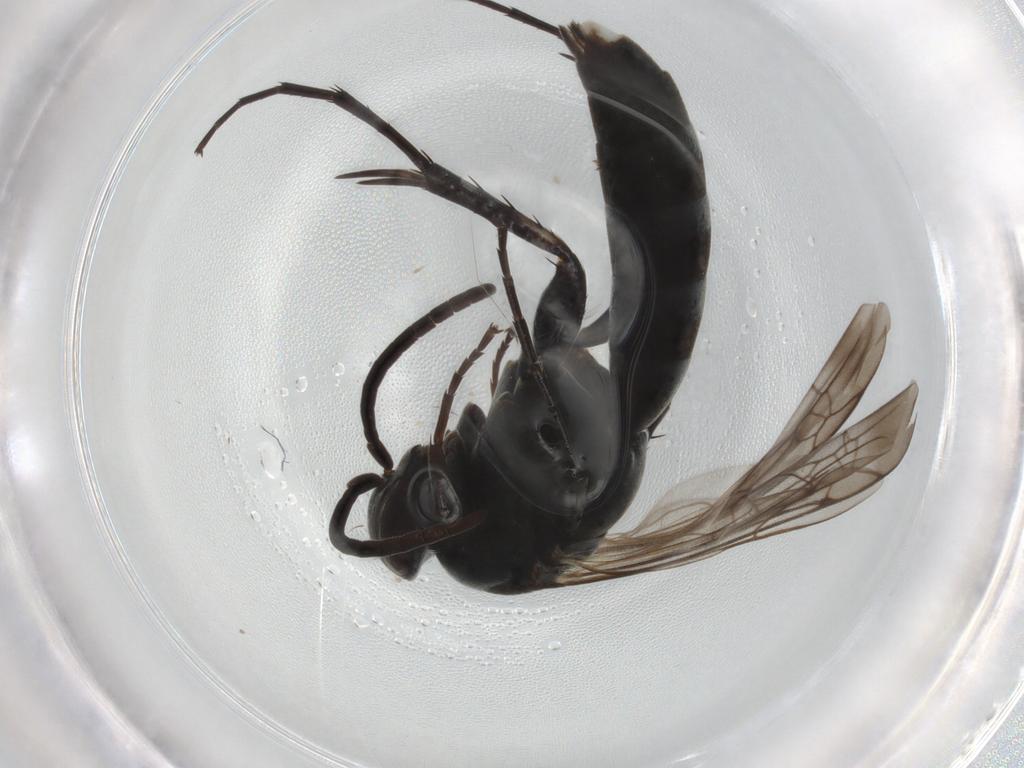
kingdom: Animalia
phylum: Arthropoda
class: Insecta
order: Hymenoptera
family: Pompilidae
